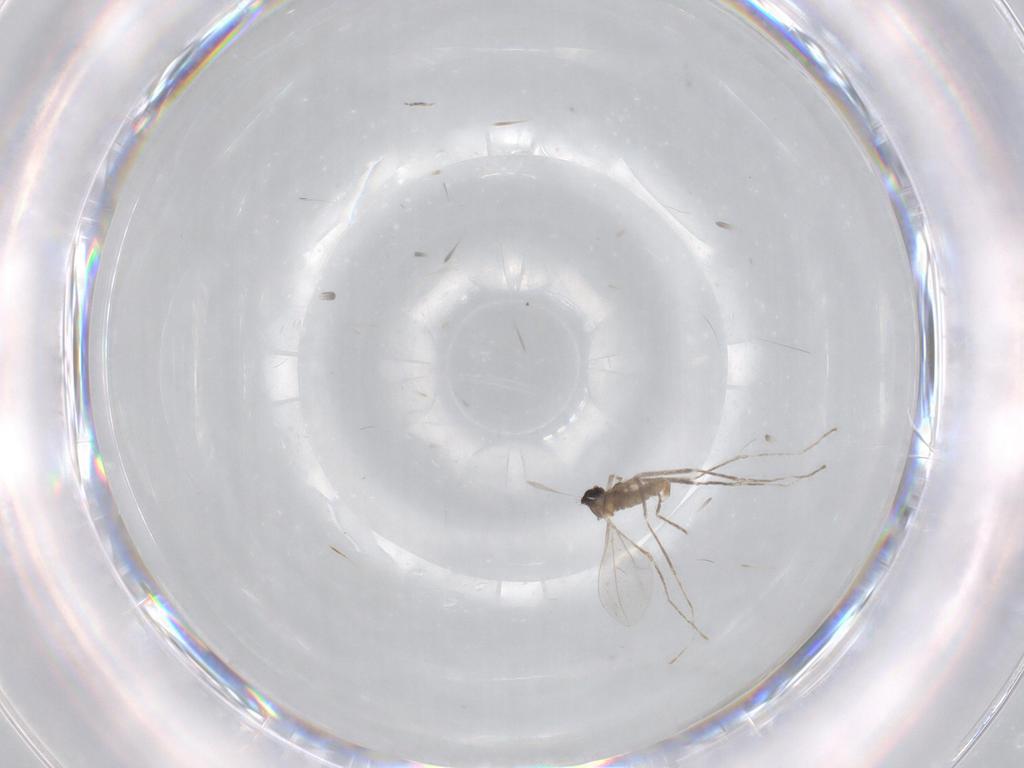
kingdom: Animalia
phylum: Arthropoda
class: Insecta
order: Diptera
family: Cecidomyiidae
